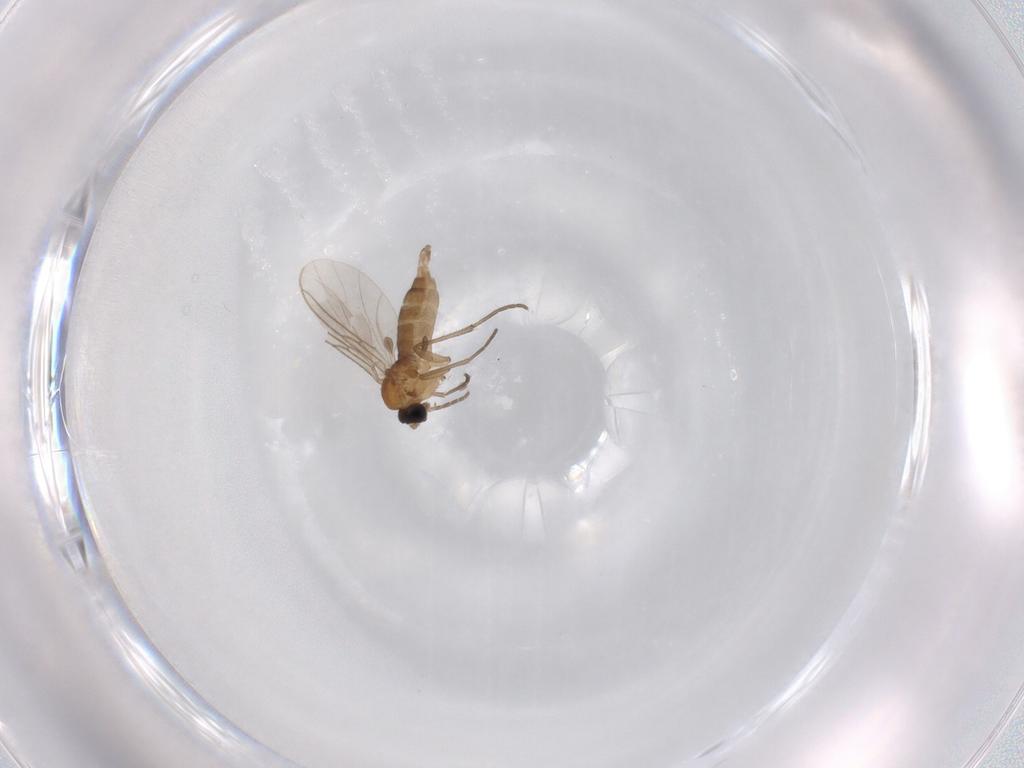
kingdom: Animalia
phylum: Arthropoda
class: Insecta
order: Diptera
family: Sciaridae
